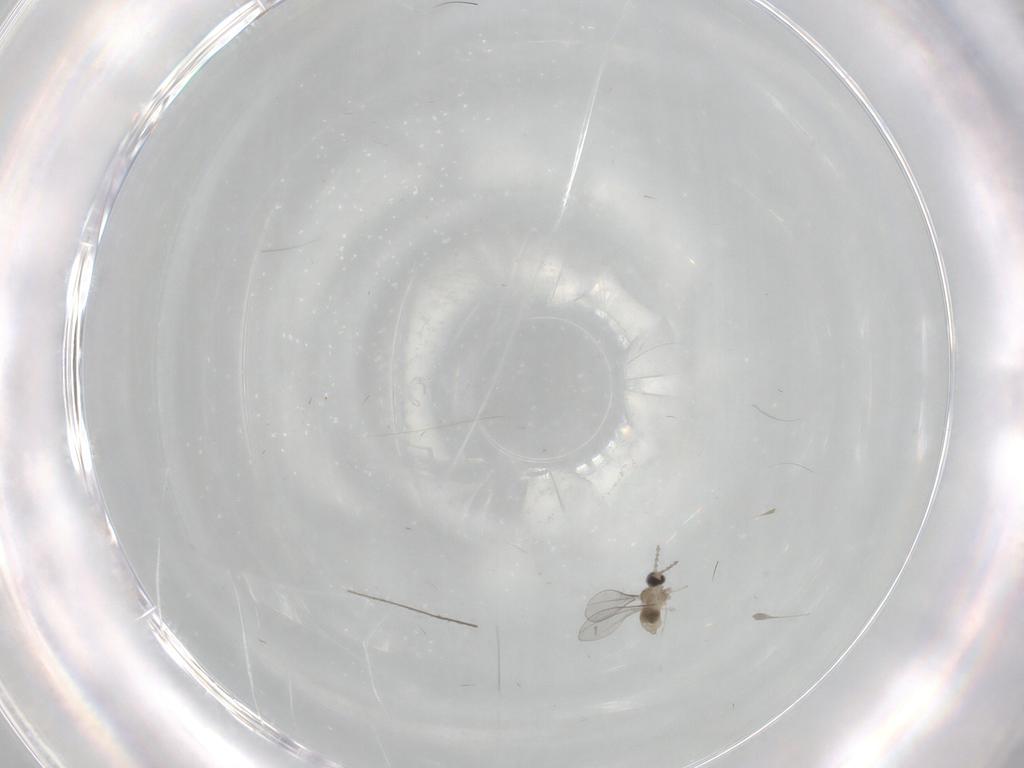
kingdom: Animalia
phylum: Arthropoda
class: Insecta
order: Diptera
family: Cecidomyiidae
